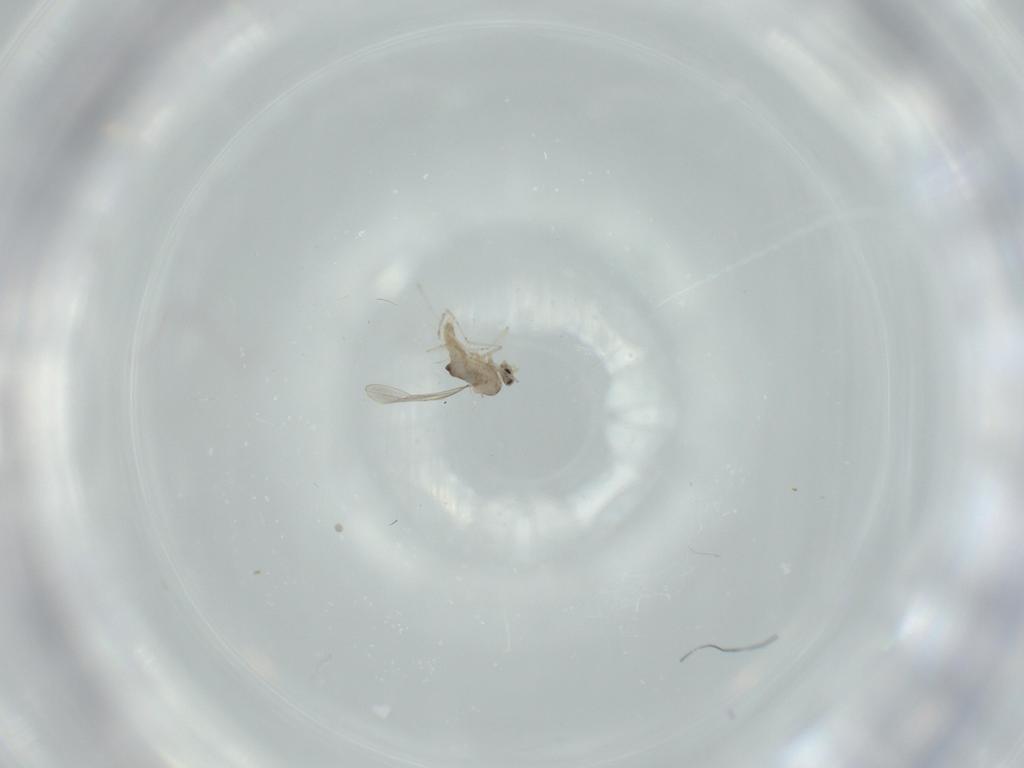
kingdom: Animalia
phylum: Arthropoda
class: Insecta
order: Diptera
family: Cecidomyiidae
